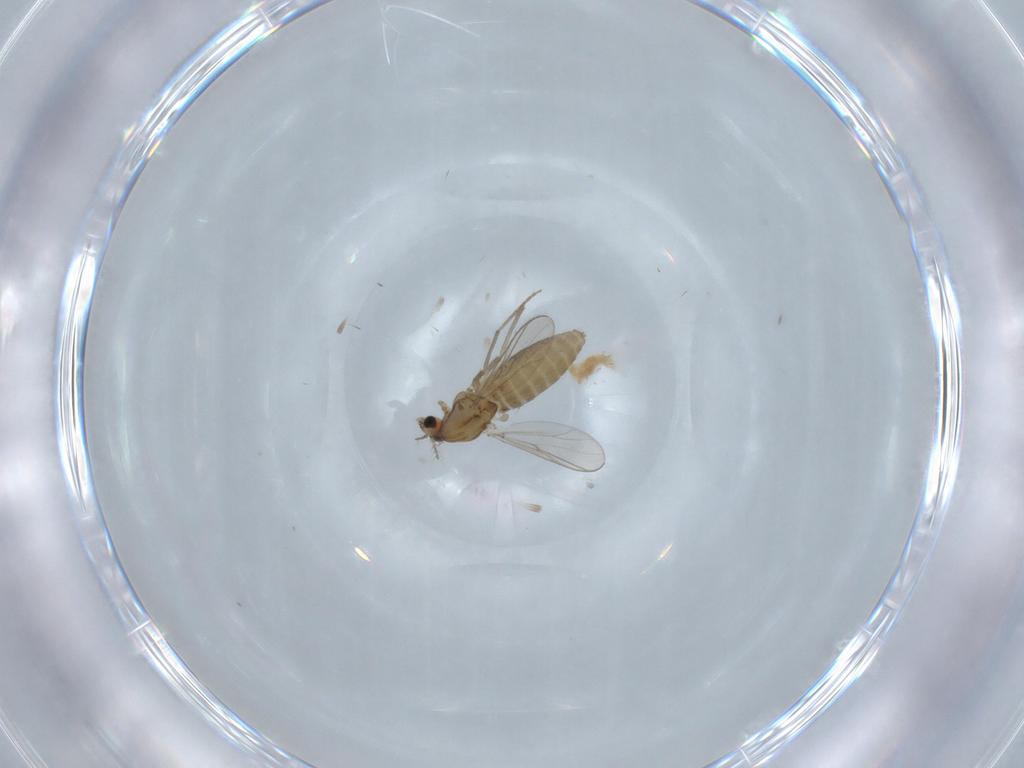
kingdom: Animalia
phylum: Arthropoda
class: Insecta
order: Diptera
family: Chironomidae
